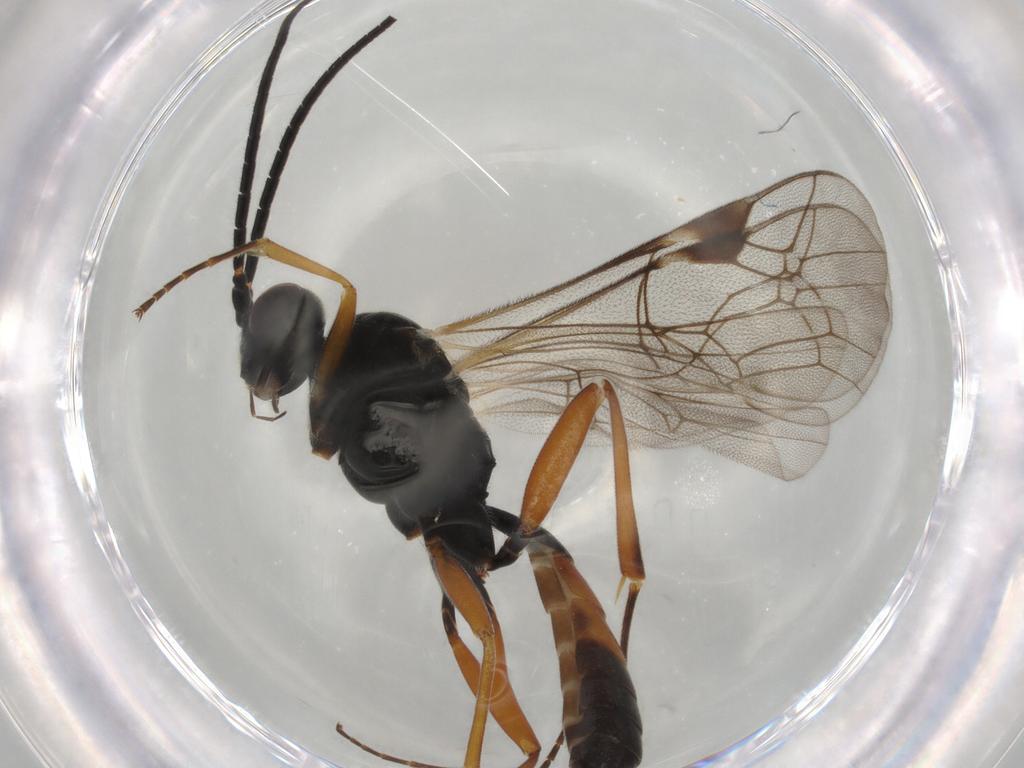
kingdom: Animalia
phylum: Arthropoda
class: Insecta
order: Hymenoptera
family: Formicidae
